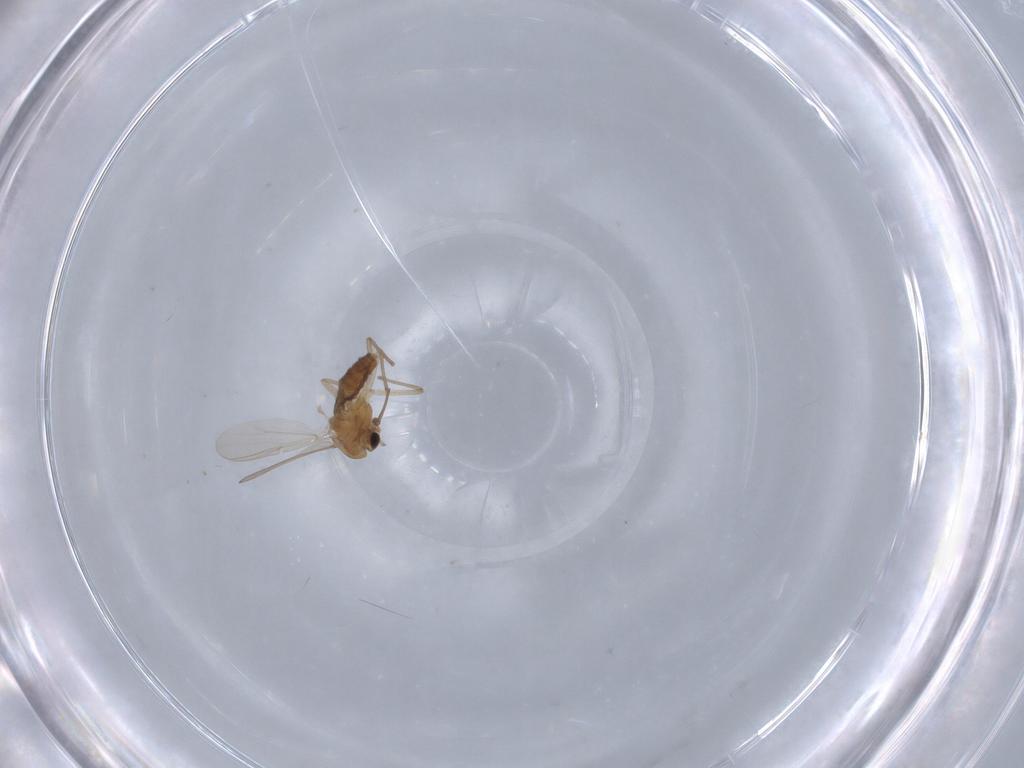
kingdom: Animalia
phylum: Arthropoda
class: Insecta
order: Diptera
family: Chironomidae
